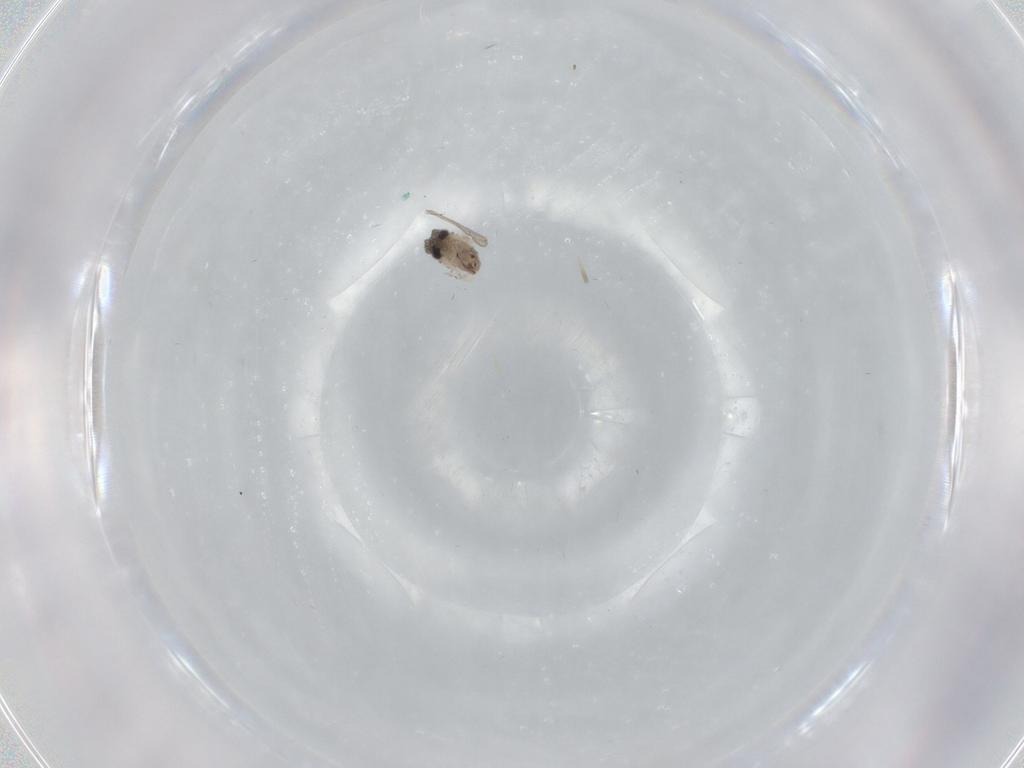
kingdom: Animalia
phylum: Arthropoda
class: Insecta
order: Diptera
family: Psychodidae
